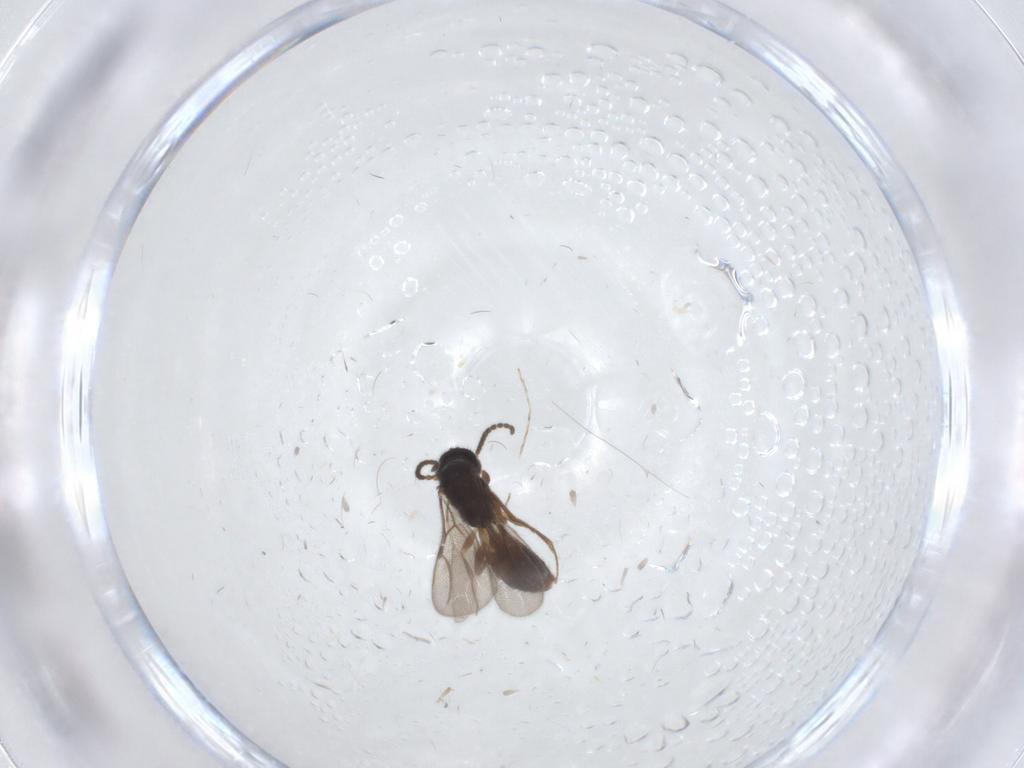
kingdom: Animalia
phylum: Arthropoda
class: Insecta
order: Hymenoptera
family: Bethylidae
